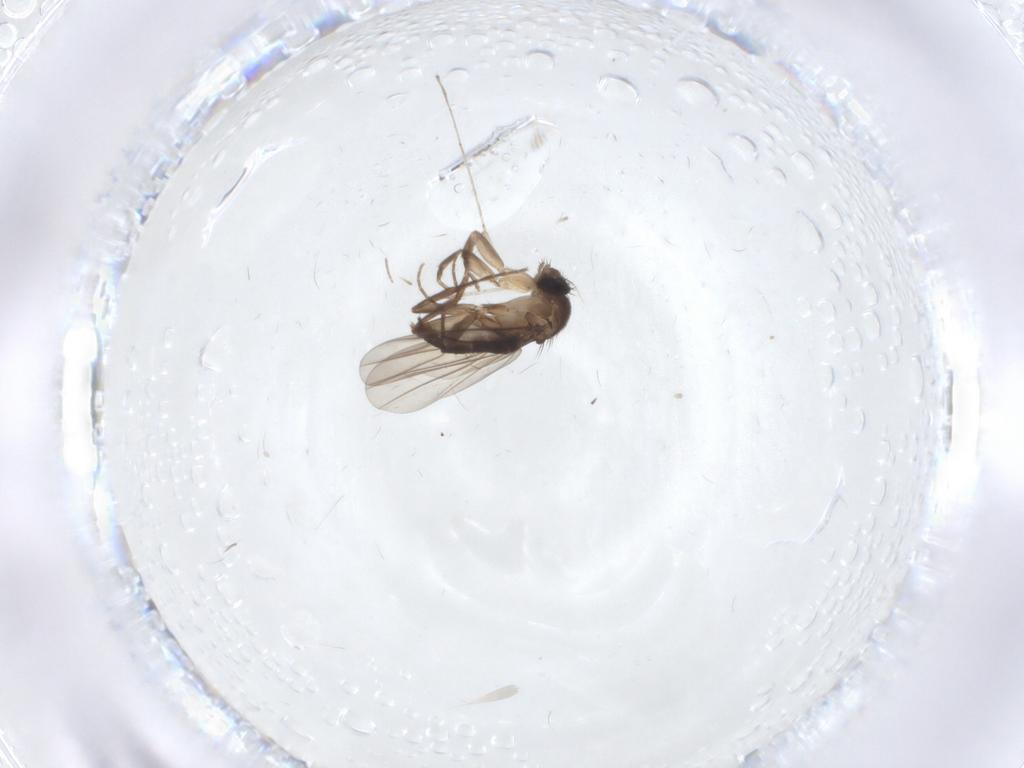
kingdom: Animalia
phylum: Arthropoda
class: Insecta
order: Diptera
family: Phoridae
